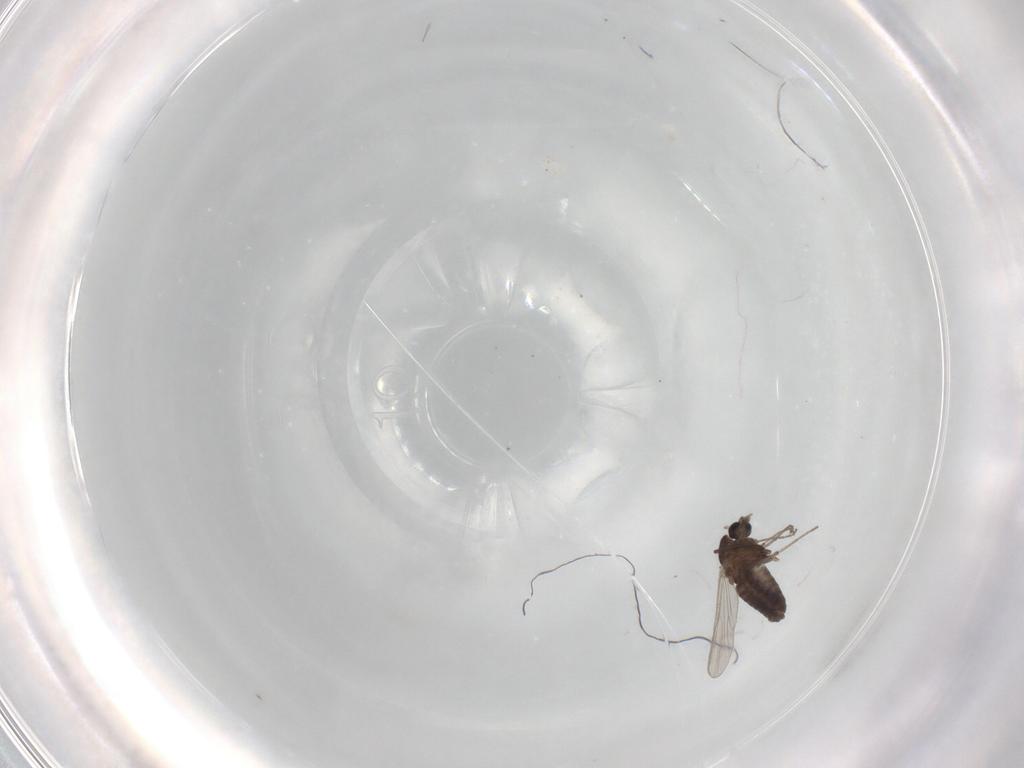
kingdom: Animalia
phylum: Arthropoda
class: Insecta
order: Diptera
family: Chironomidae
